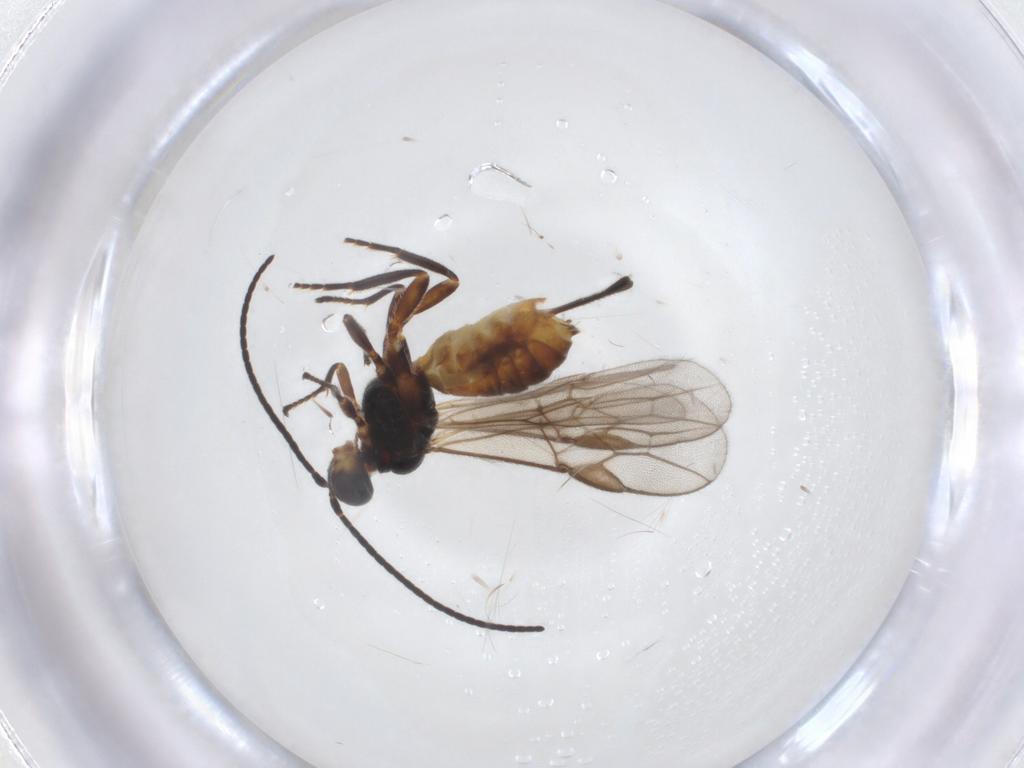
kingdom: Animalia
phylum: Arthropoda
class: Insecta
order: Hymenoptera
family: Braconidae
